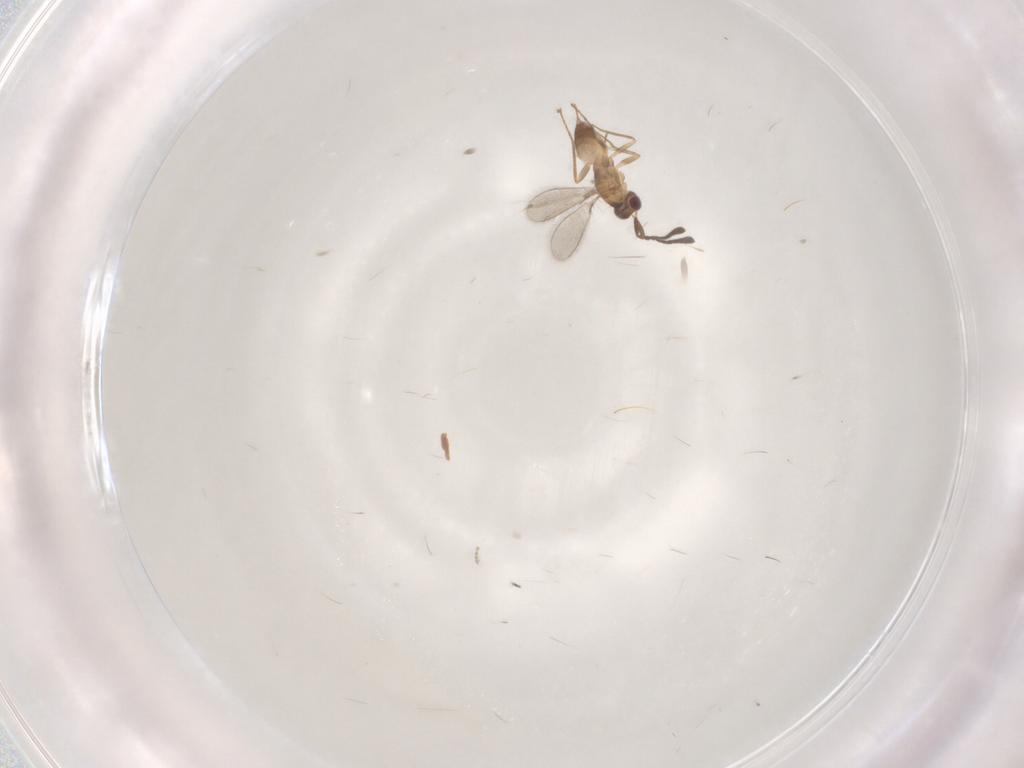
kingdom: Animalia
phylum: Arthropoda
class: Insecta
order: Hymenoptera
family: Mymaridae
